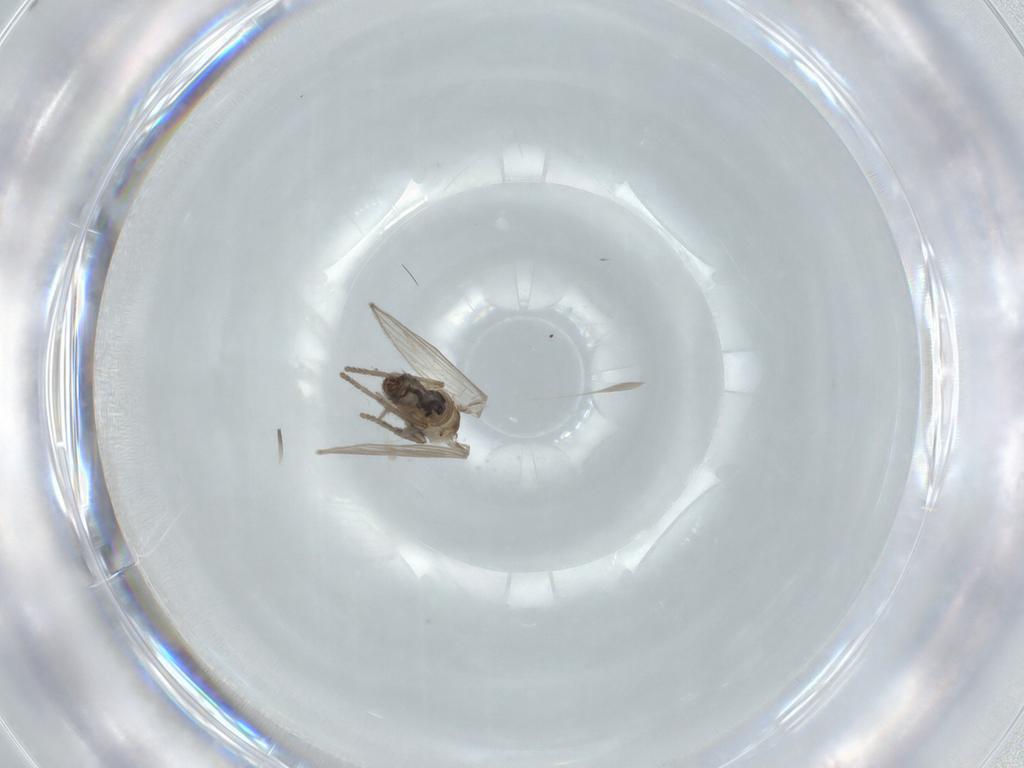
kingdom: Animalia
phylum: Arthropoda
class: Insecta
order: Diptera
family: Psychodidae
